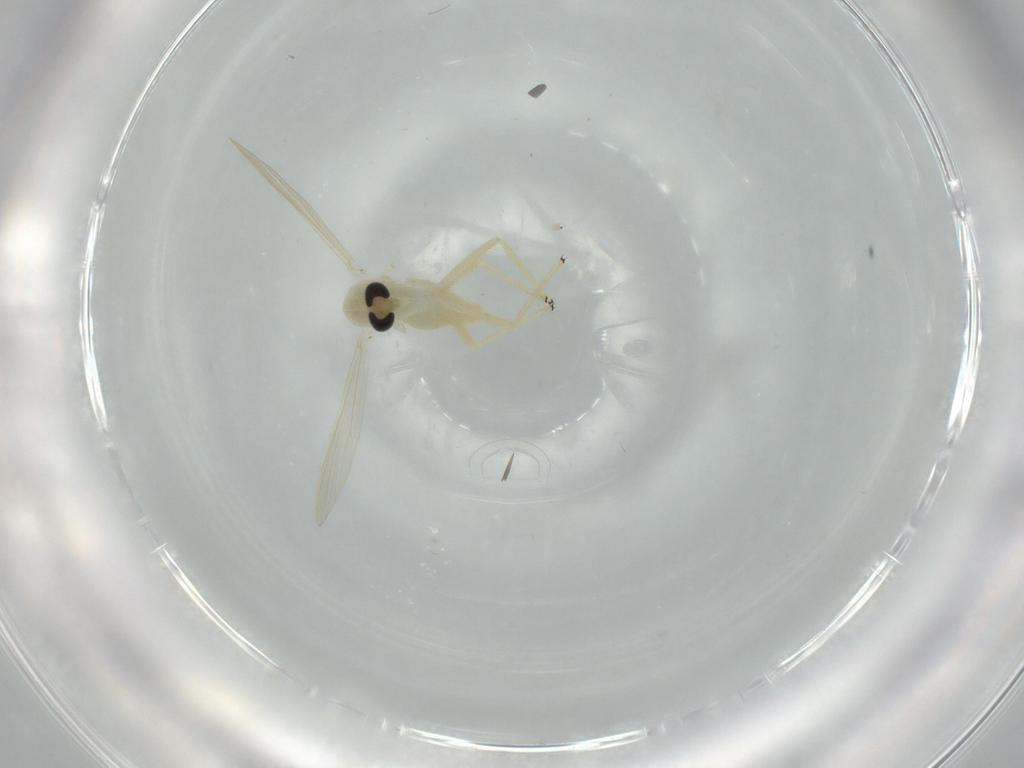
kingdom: Animalia
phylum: Arthropoda
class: Insecta
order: Diptera
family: Chironomidae
